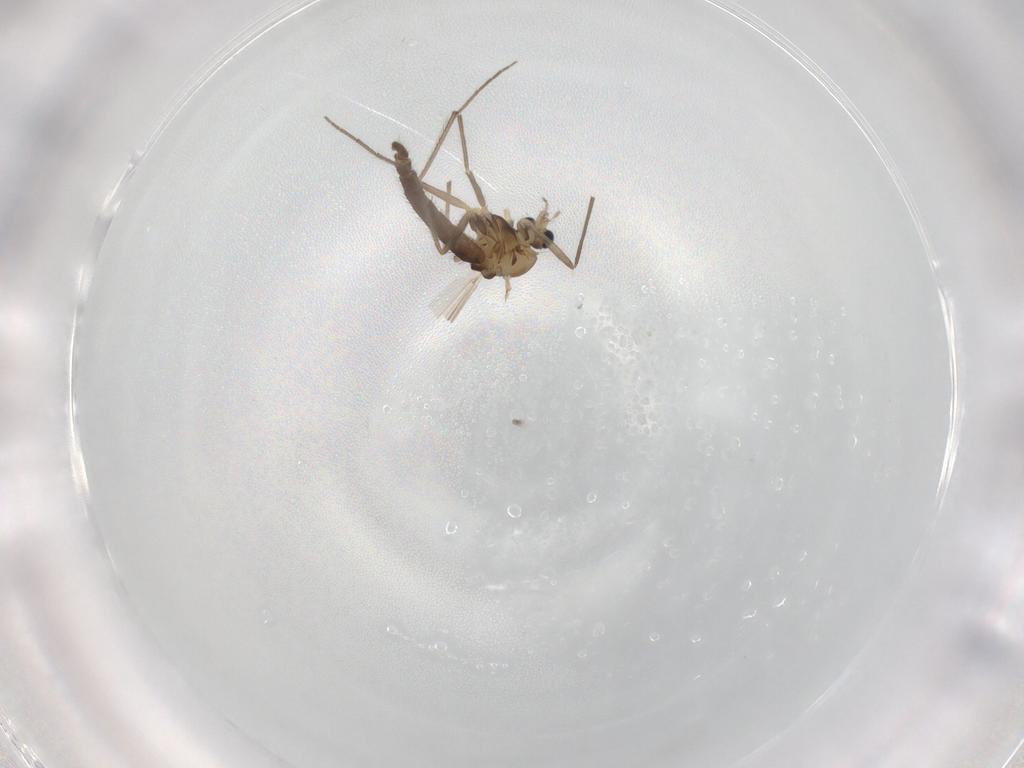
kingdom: Animalia
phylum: Arthropoda
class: Insecta
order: Diptera
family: Chironomidae
